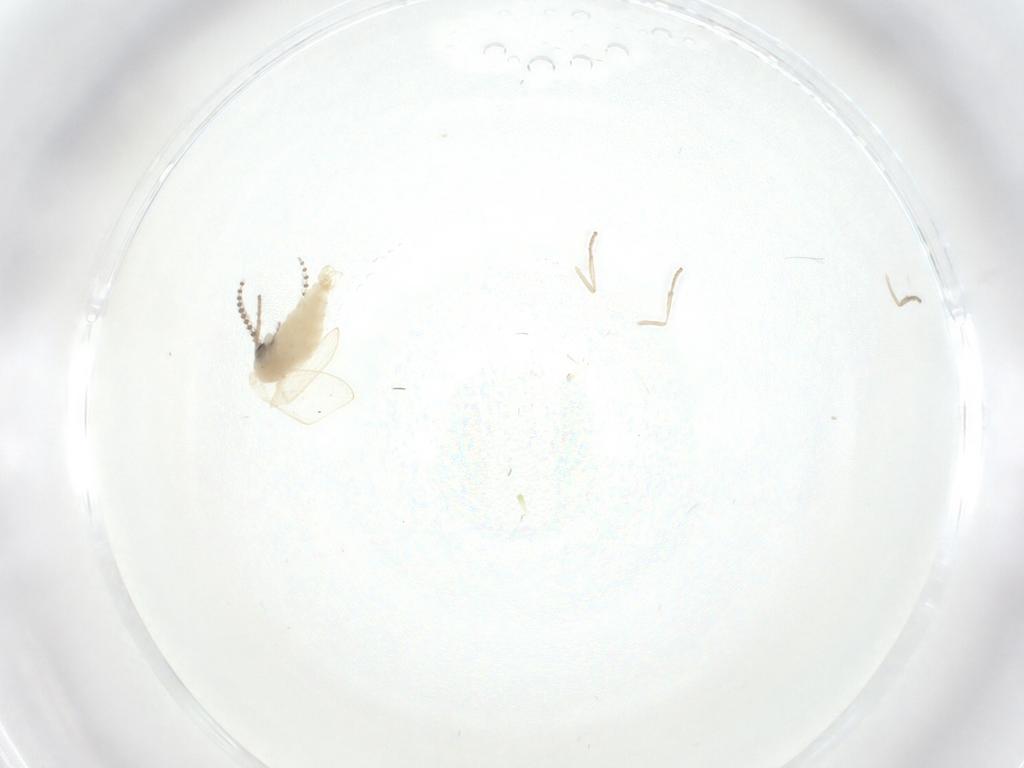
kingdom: Animalia
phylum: Arthropoda
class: Insecta
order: Diptera
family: Psychodidae
